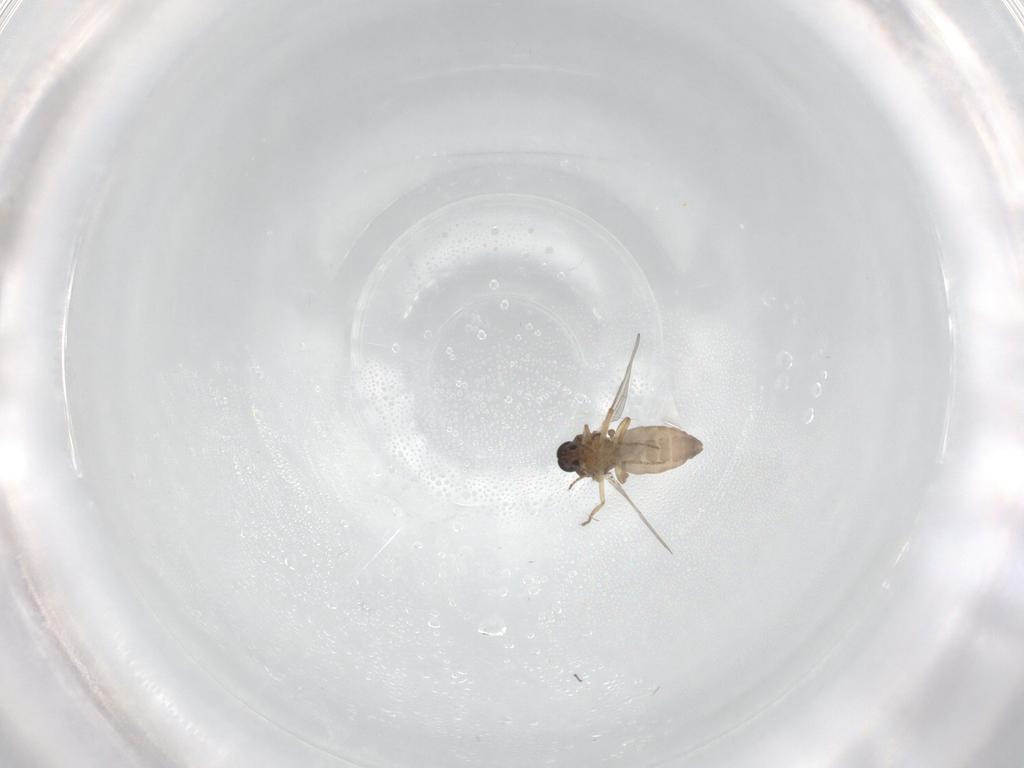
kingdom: Animalia
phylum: Arthropoda
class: Insecta
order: Diptera
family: Ceratopogonidae
